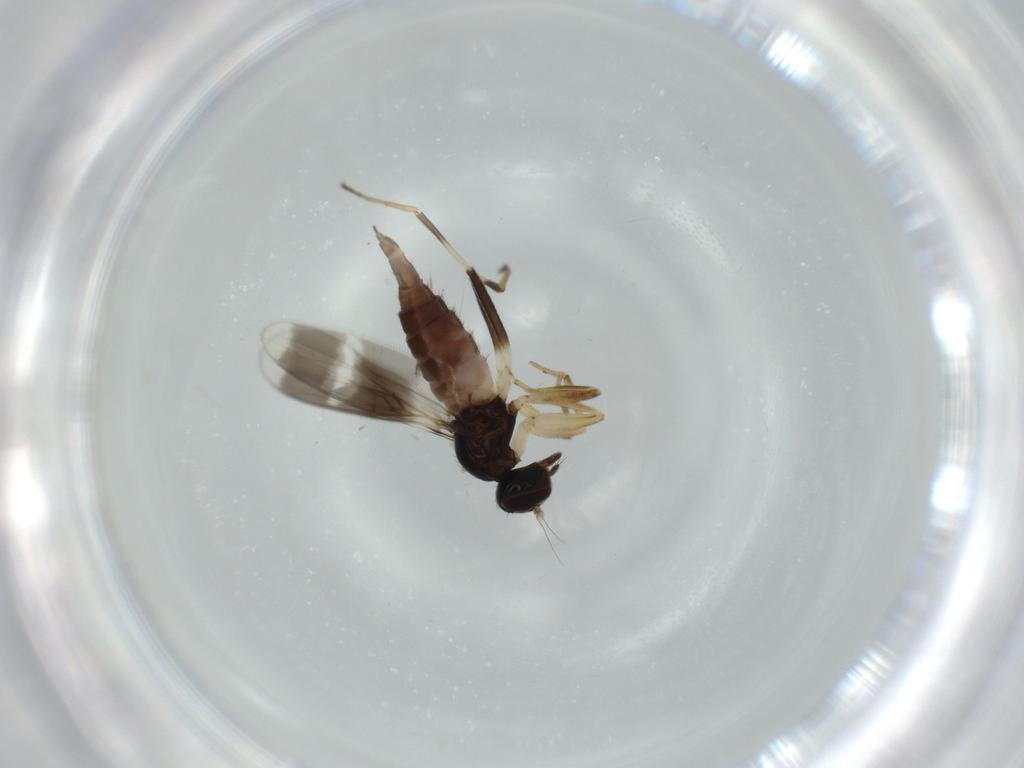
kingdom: Animalia
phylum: Arthropoda
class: Insecta
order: Diptera
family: Hybotidae
